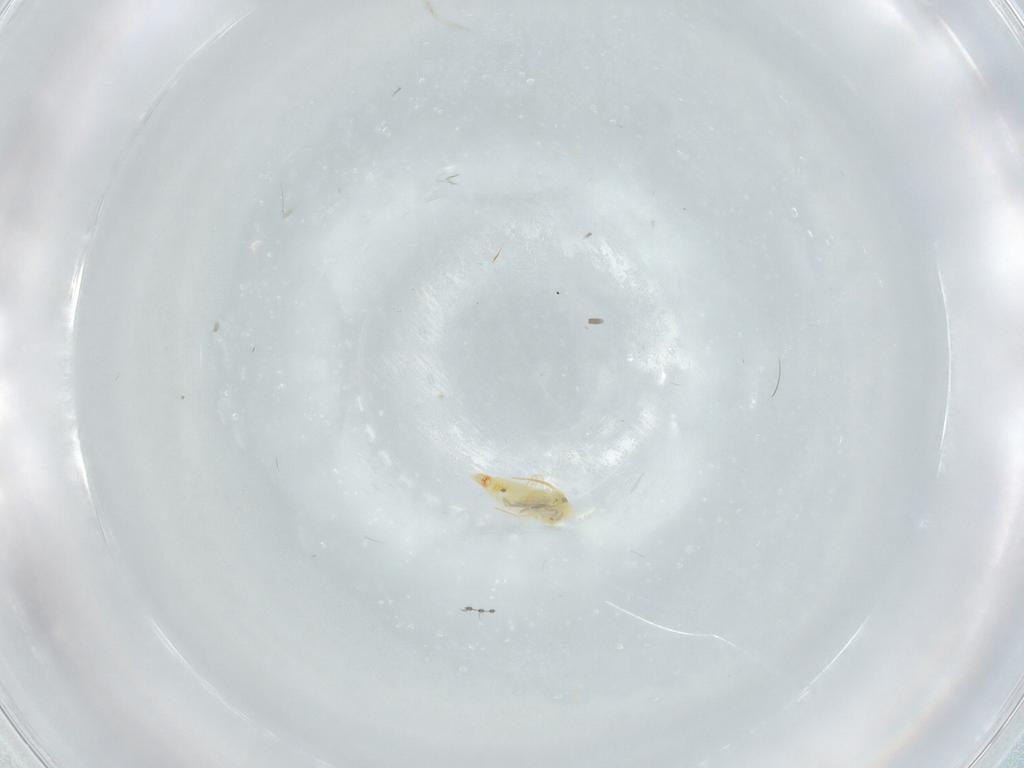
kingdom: Animalia
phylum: Arthropoda
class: Insecta
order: Hemiptera
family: Aleyrodidae
